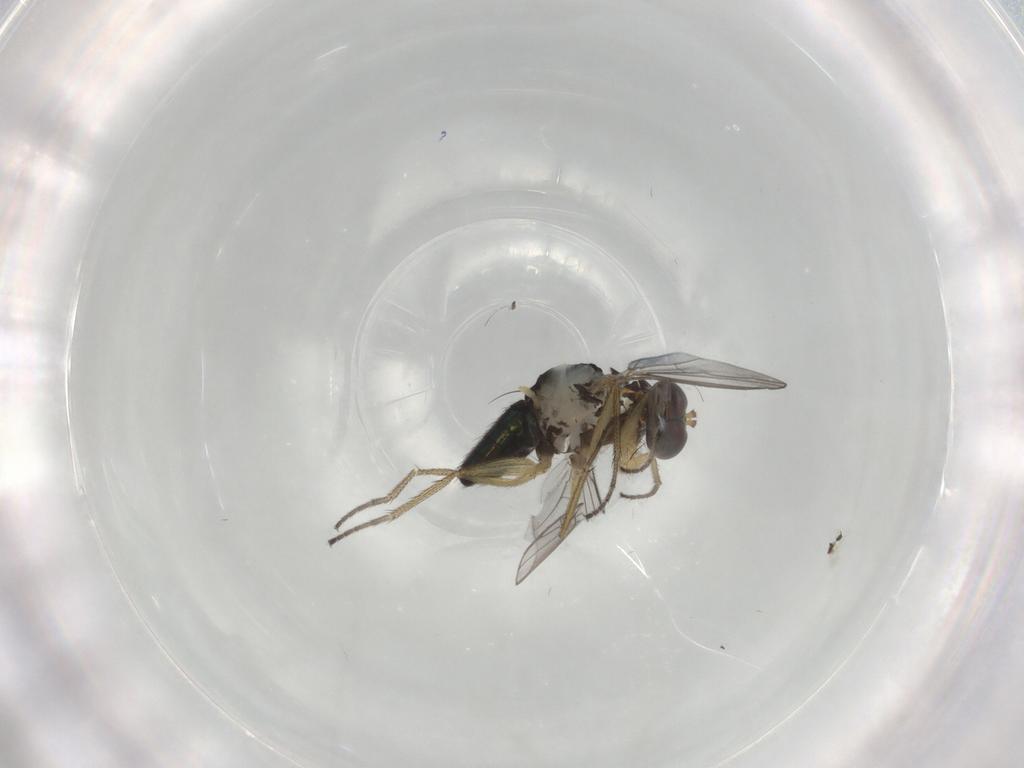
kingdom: Animalia
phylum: Arthropoda
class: Insecta
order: Diptera
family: Dolichopodidae
